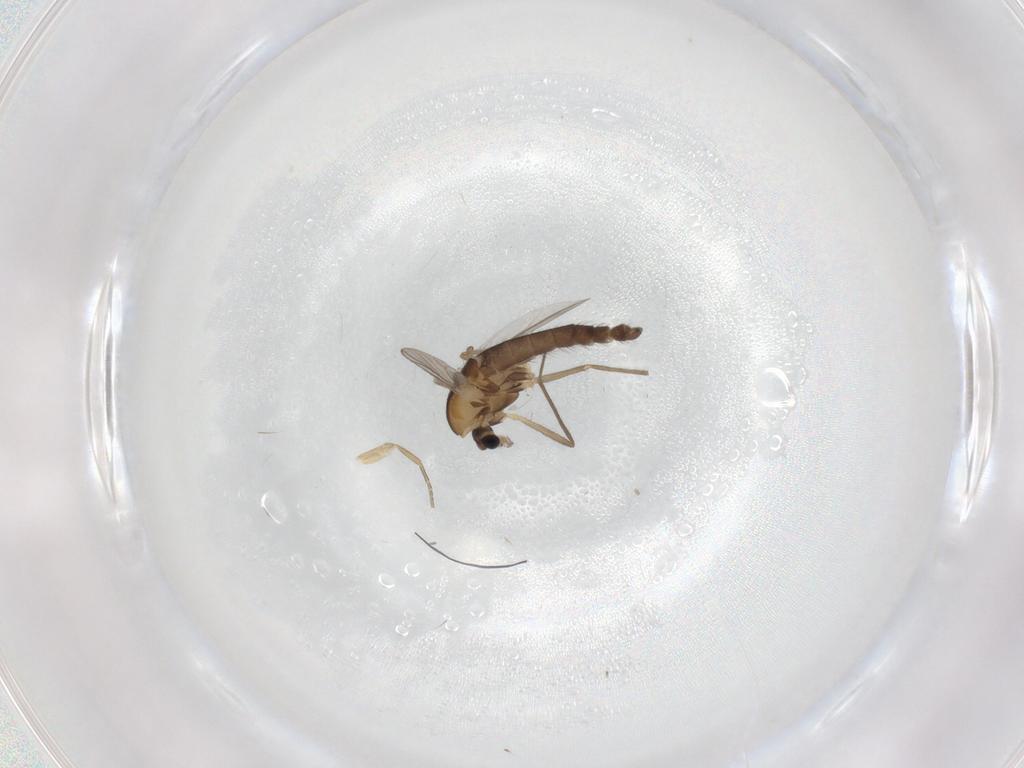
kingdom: Animalia
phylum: Arthropoda
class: Insecta
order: Diptera
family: Chironomidae
